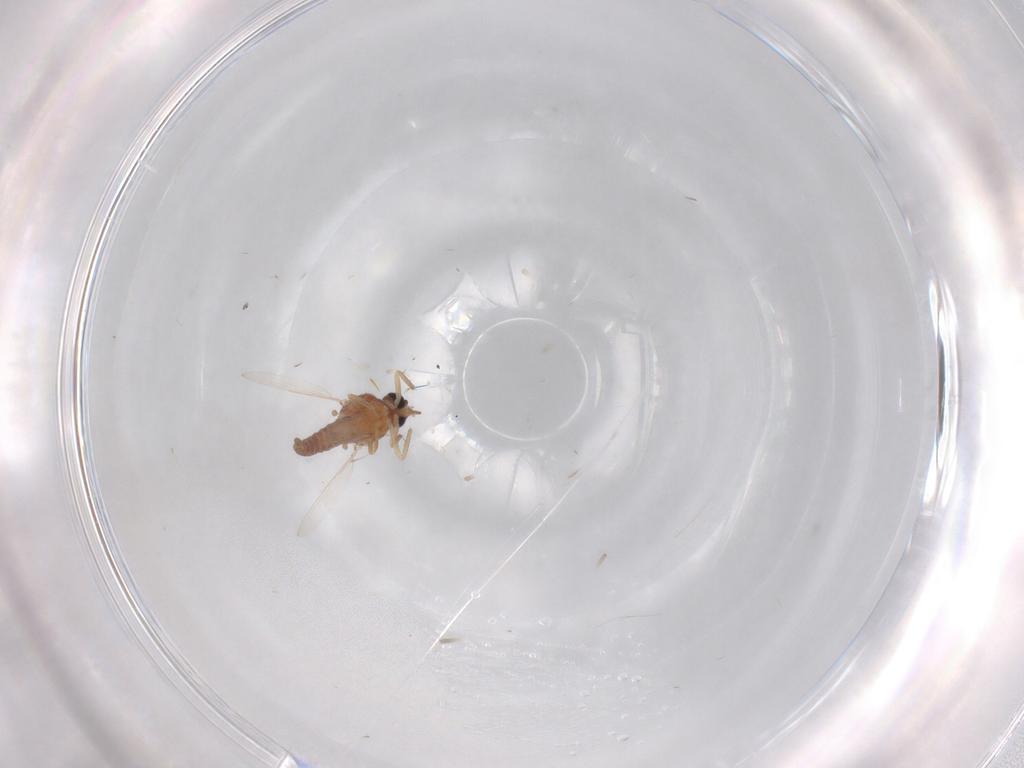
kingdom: Animalia
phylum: Arthropoda
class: Insecta
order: Diptera
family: Ceratopogonidae
